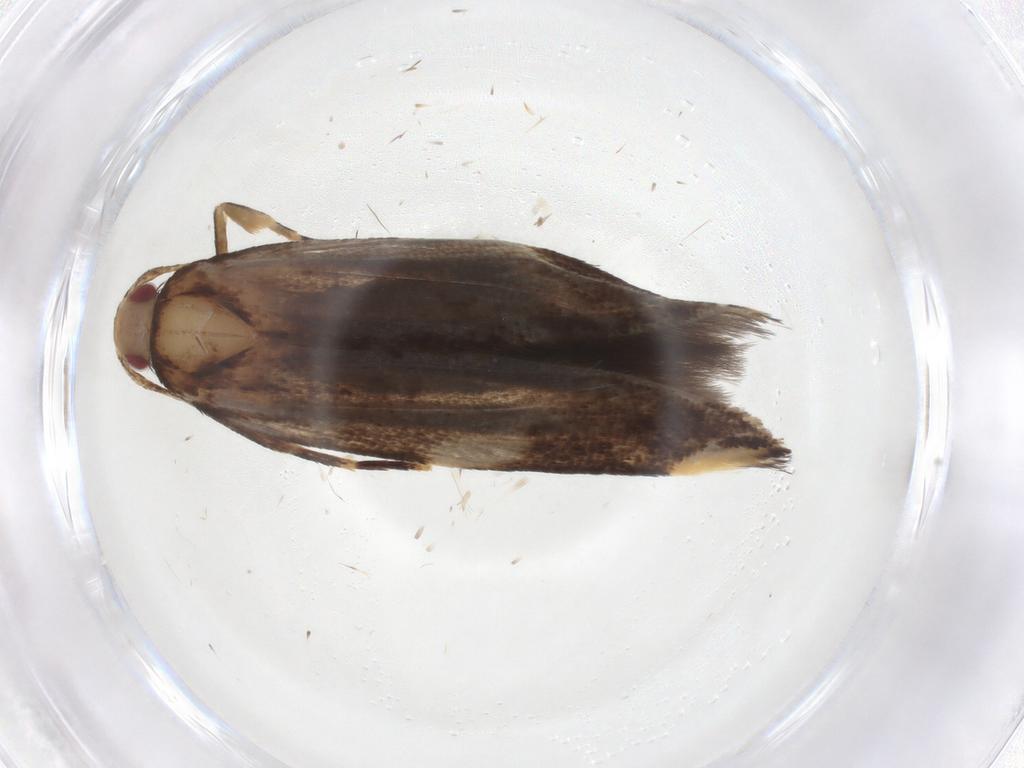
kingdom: Animalia
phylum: Arthropoda
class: Insecta
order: Lepidoptera
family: Cosmopterigidae
